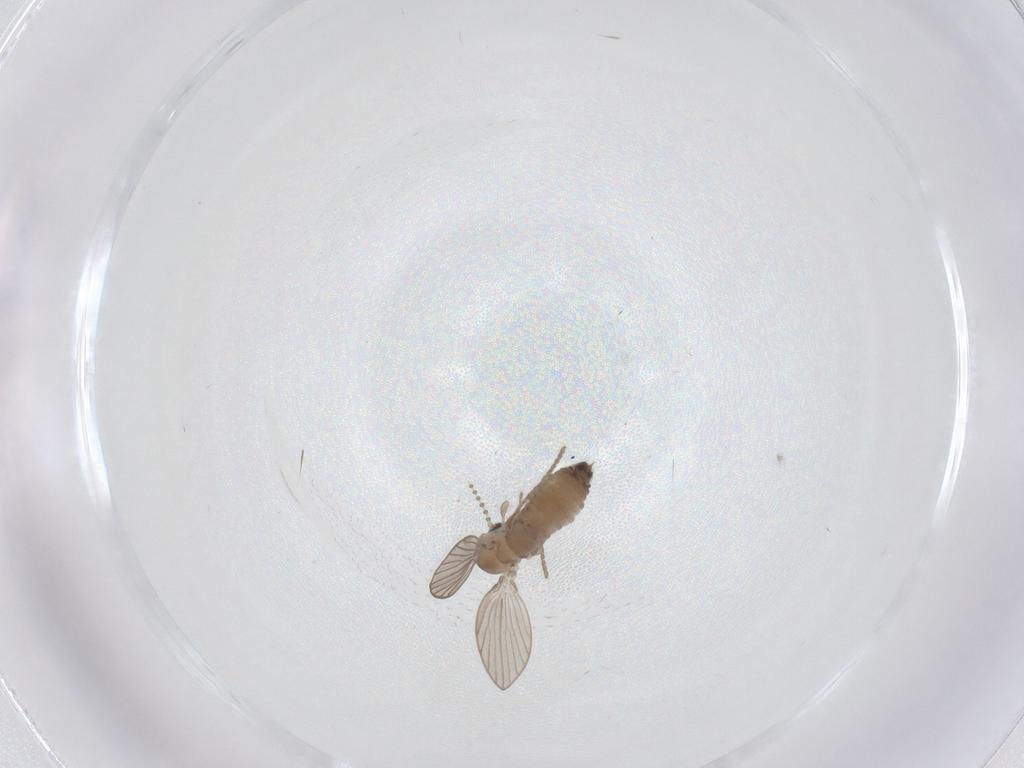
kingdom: Animalia
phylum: Arthropoda
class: Insecta
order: Diptera
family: Psychodidae
